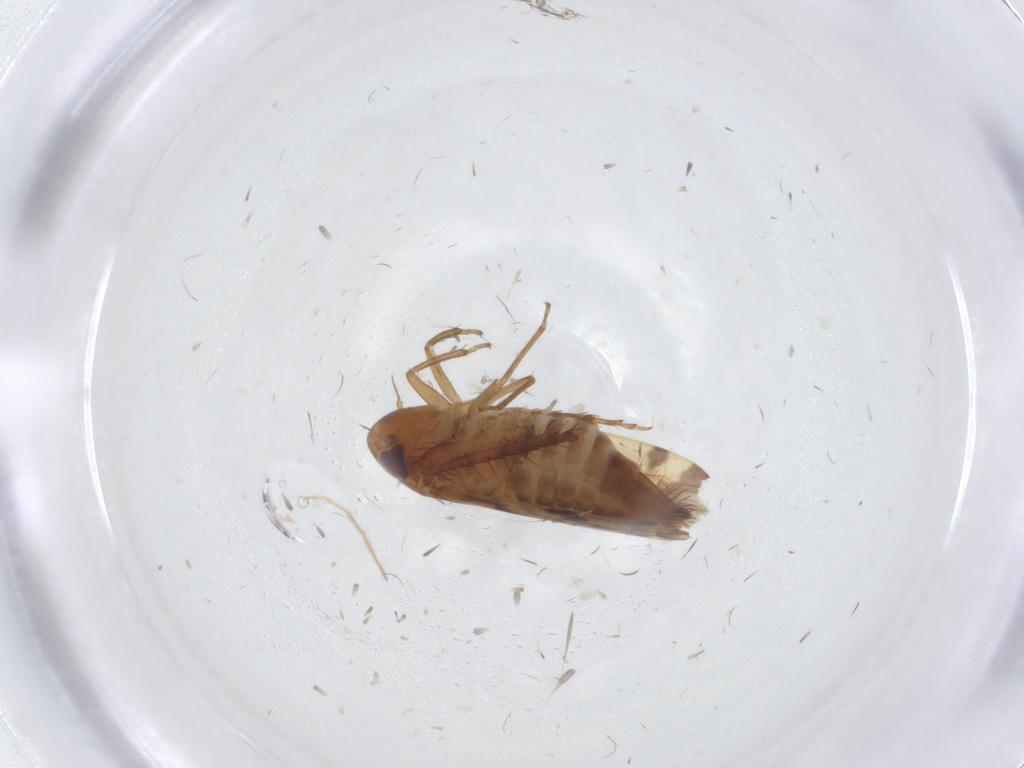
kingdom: Animalia
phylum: Arthropoda
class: Insecta
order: Hemiptera
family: Cicadellidae
